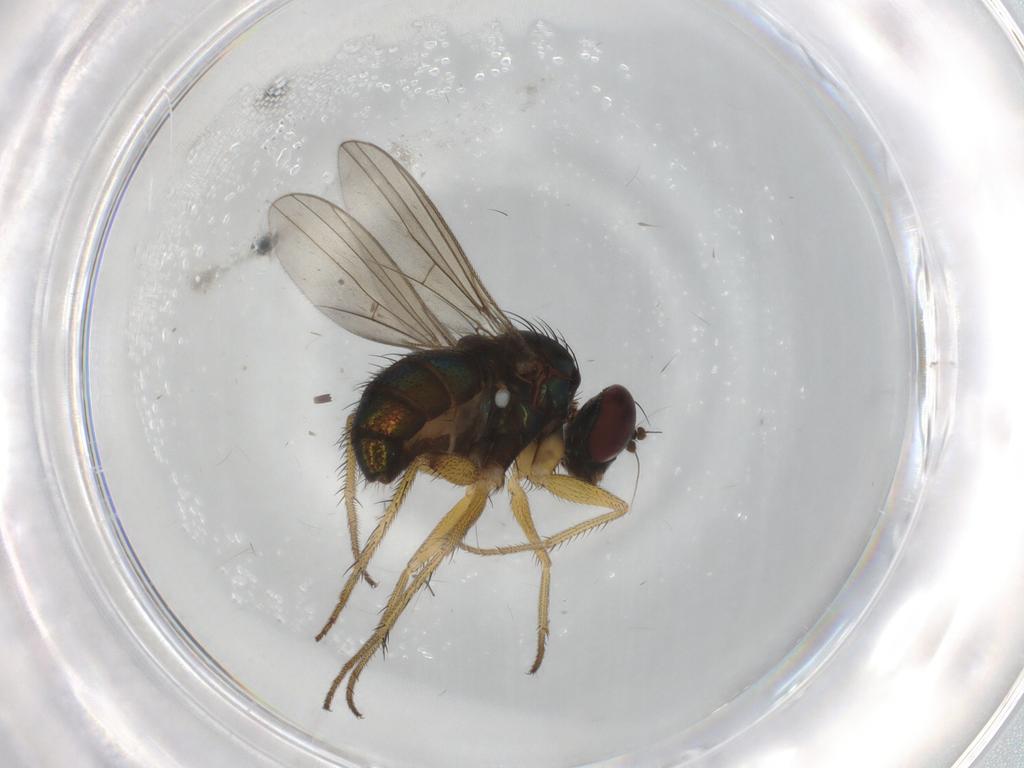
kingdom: Animalia
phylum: Arthropoda
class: Insecta
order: Diptera
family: Dolichopodidae
